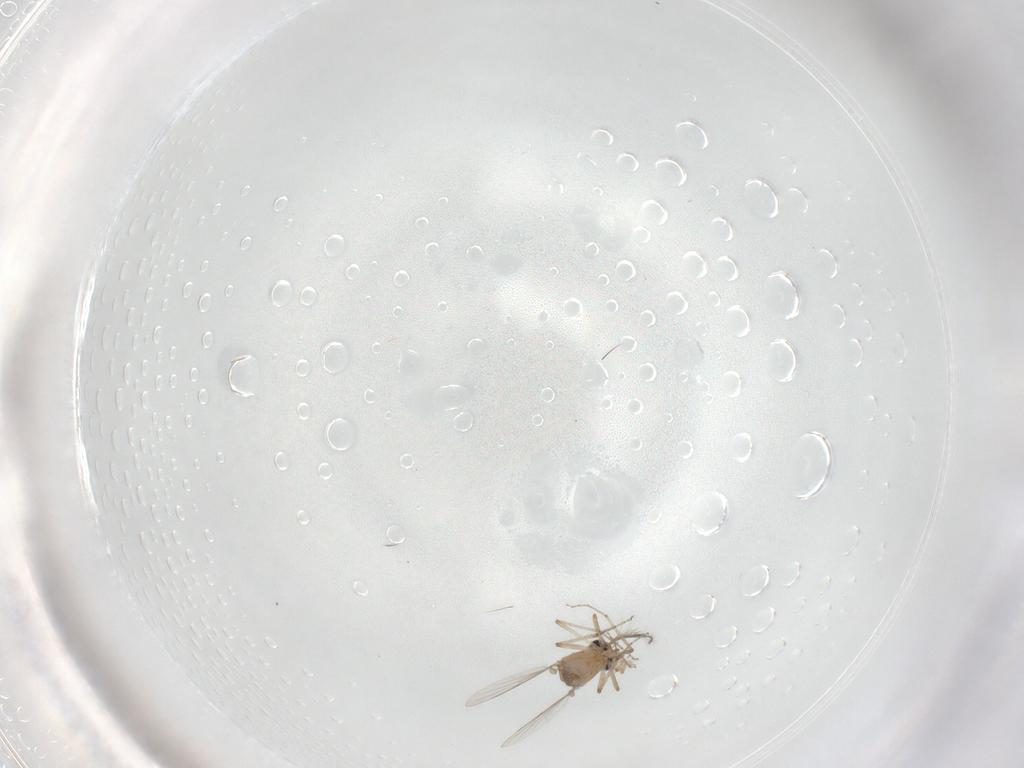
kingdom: Animalia
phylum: Arthropoda
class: Insecta
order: Diptera
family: Ceratopogonidae
